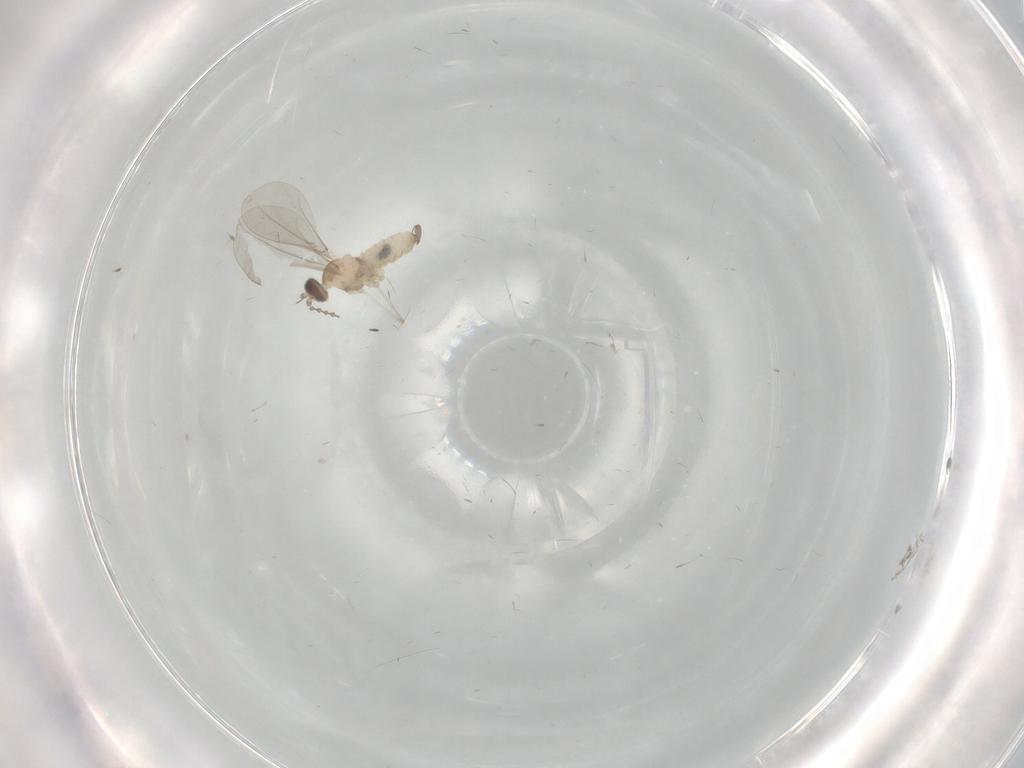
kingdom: Animalia
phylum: Arthropoda
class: Insecta
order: Diptera
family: Cecidomyiidae
